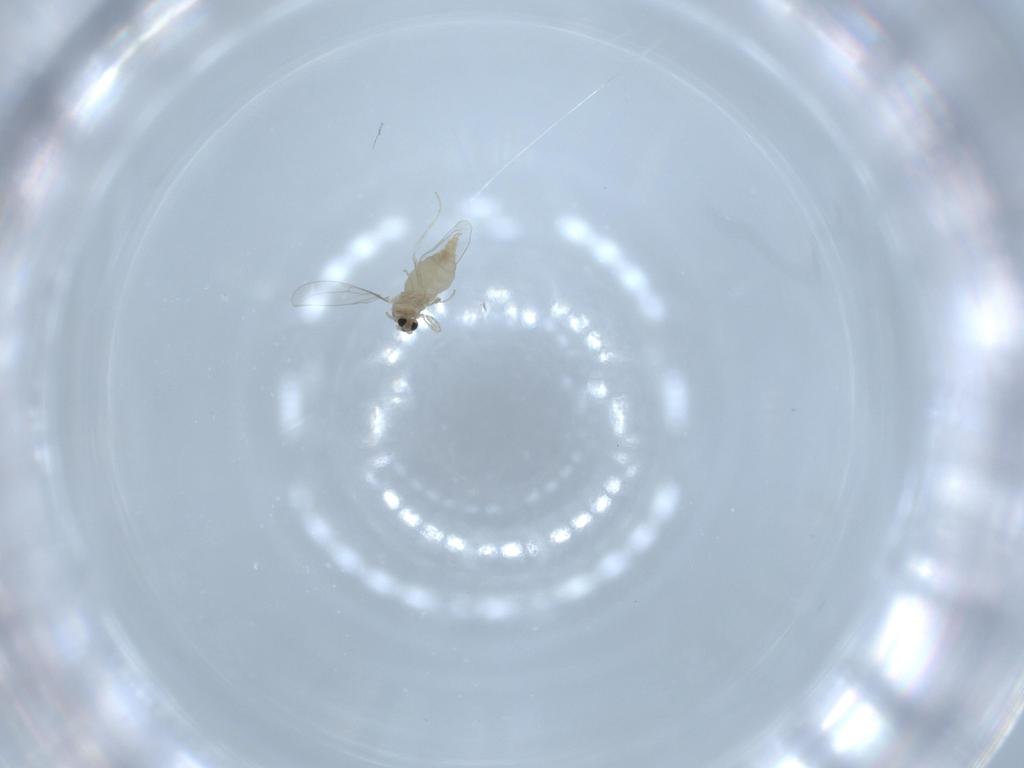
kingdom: Animalia
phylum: Arthropoda
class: Insecta
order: Diptera
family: Cecidomyiidae
